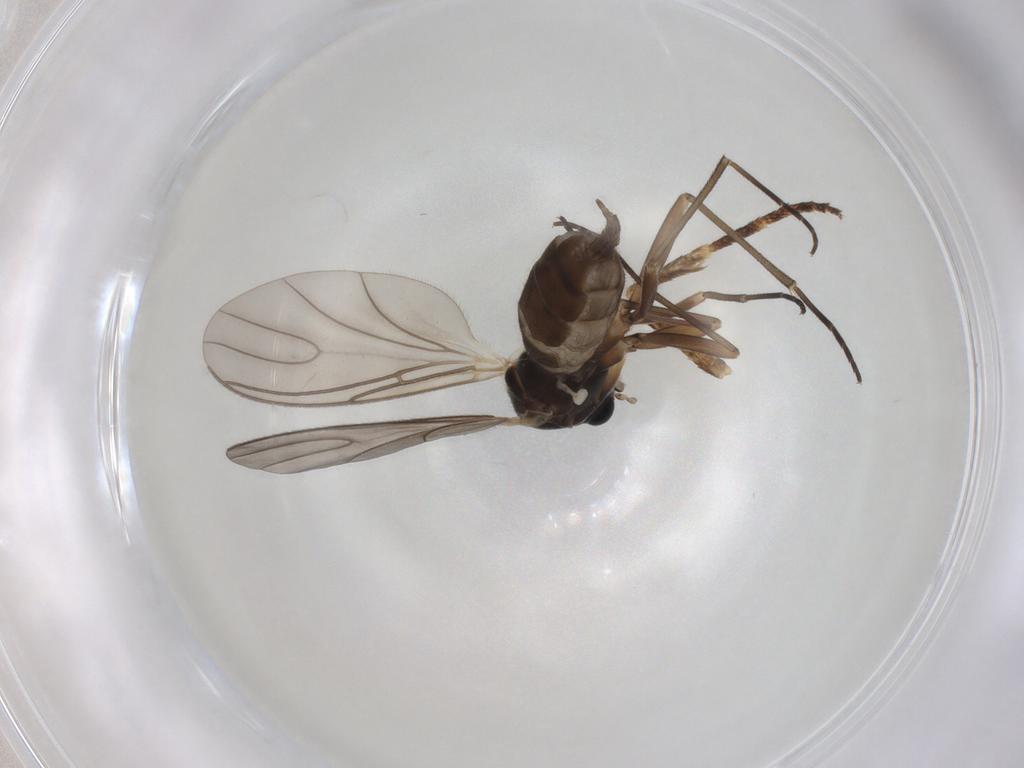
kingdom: Animalia
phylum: Arthropoda
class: Insecta
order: Diptera
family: Sciaridae
